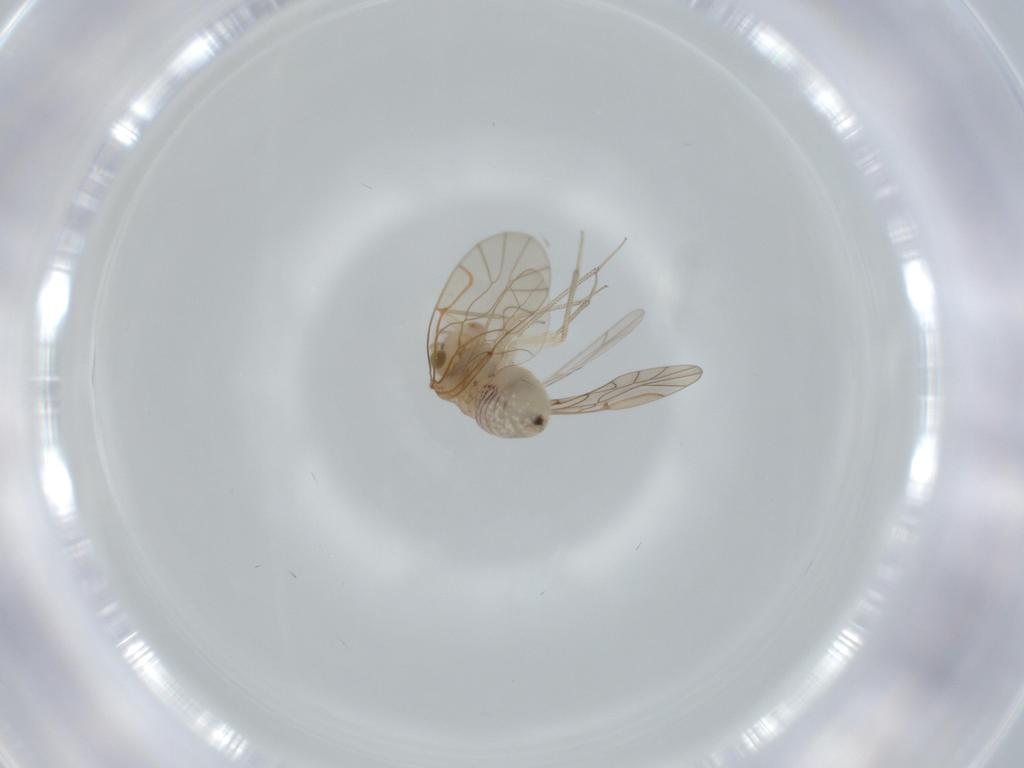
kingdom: Animalia
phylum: Arthropoda
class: Insecta
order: Psocodea
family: Lachesillidae
